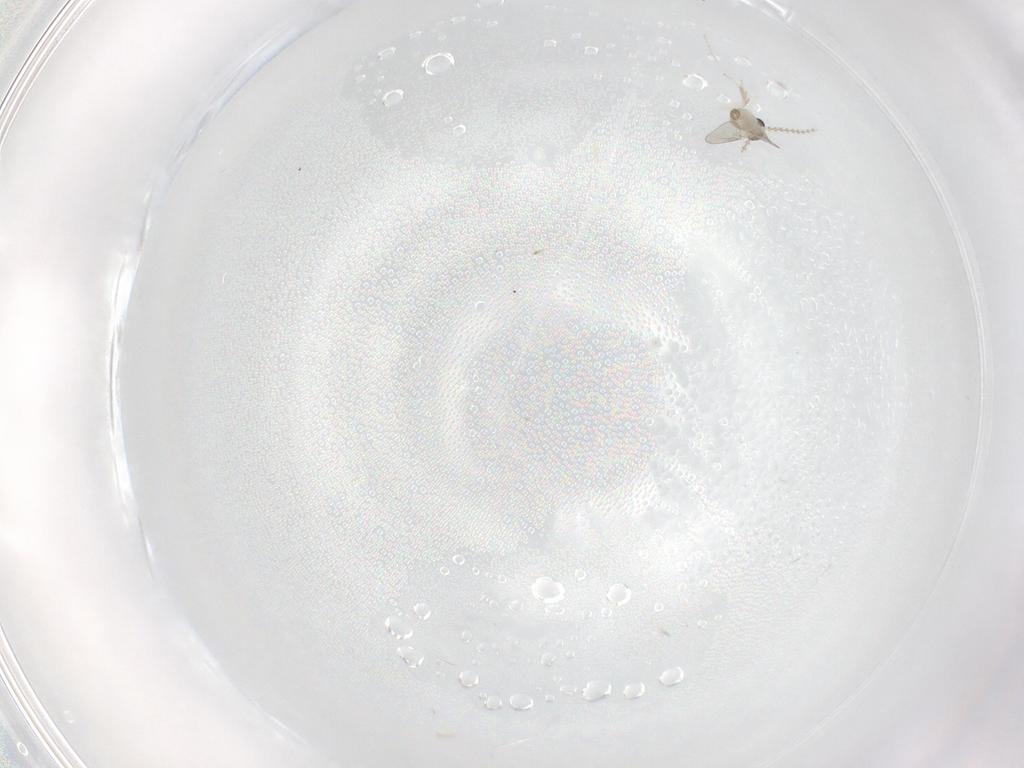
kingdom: Animalia
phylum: Arthropoda
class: Insecta
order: Diptera
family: Cecidomyiidae
